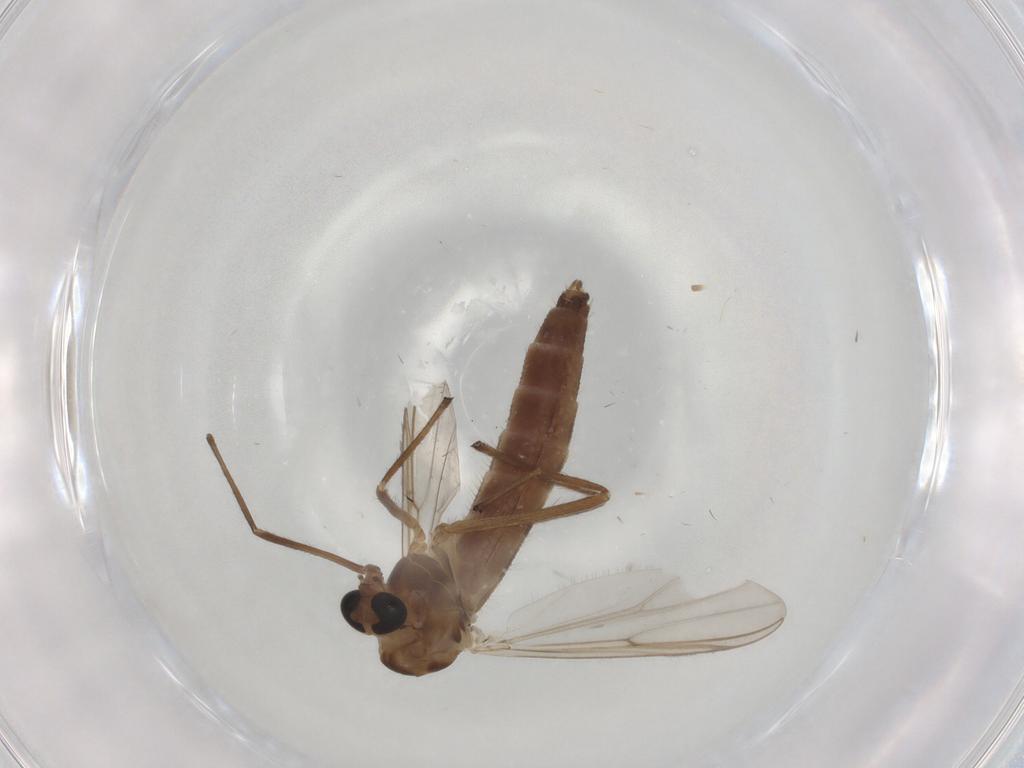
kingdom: Animalia
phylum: Arthropoda
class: Insecta
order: Diptera
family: Chironomidae
